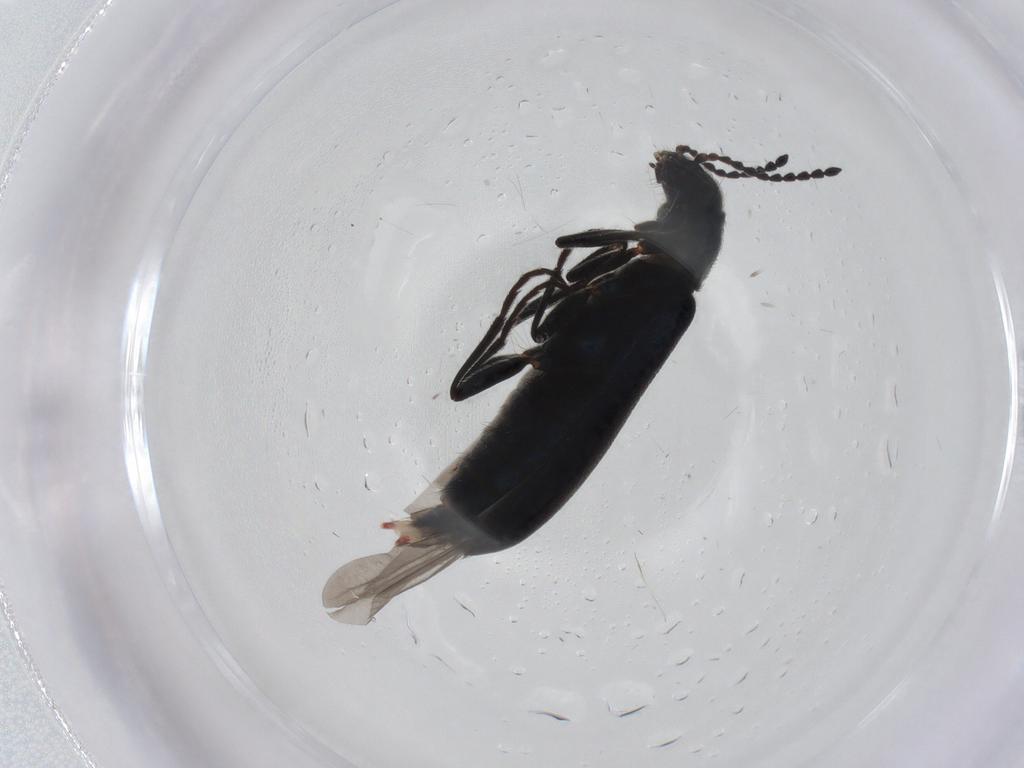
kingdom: Animalia
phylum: Arthropoda
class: Insecta
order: Coleoptera
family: Melyridae
